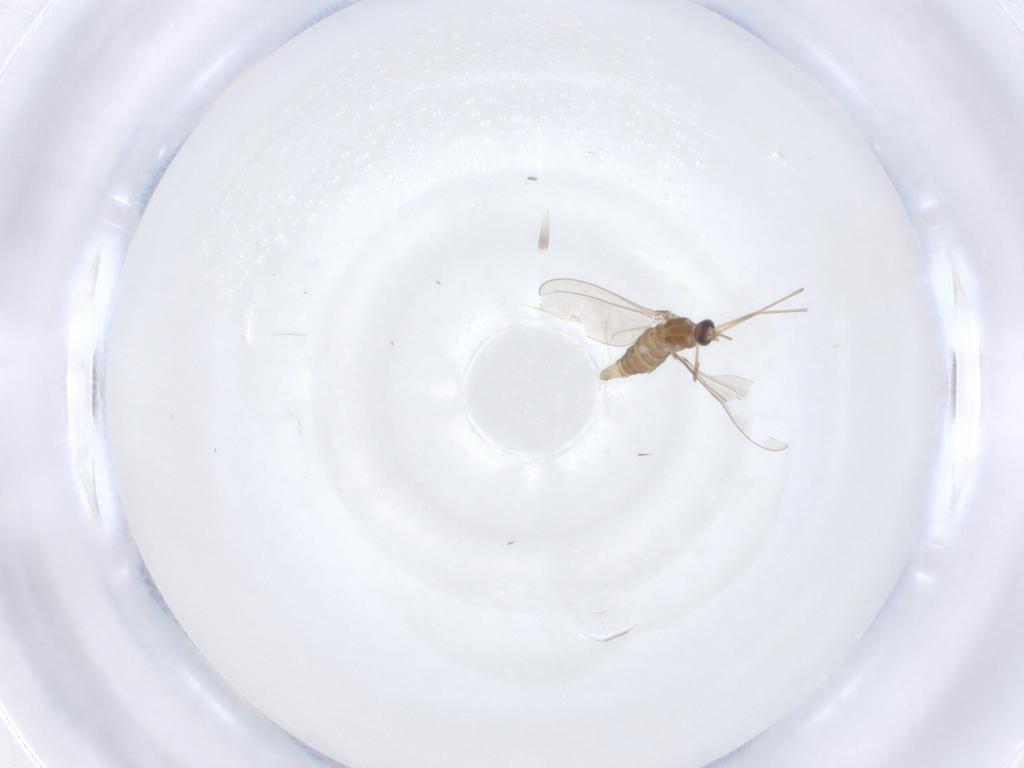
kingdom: Animalia
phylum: Arthropoda
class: Insecta
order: Diptera
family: Cecidomyiidae
